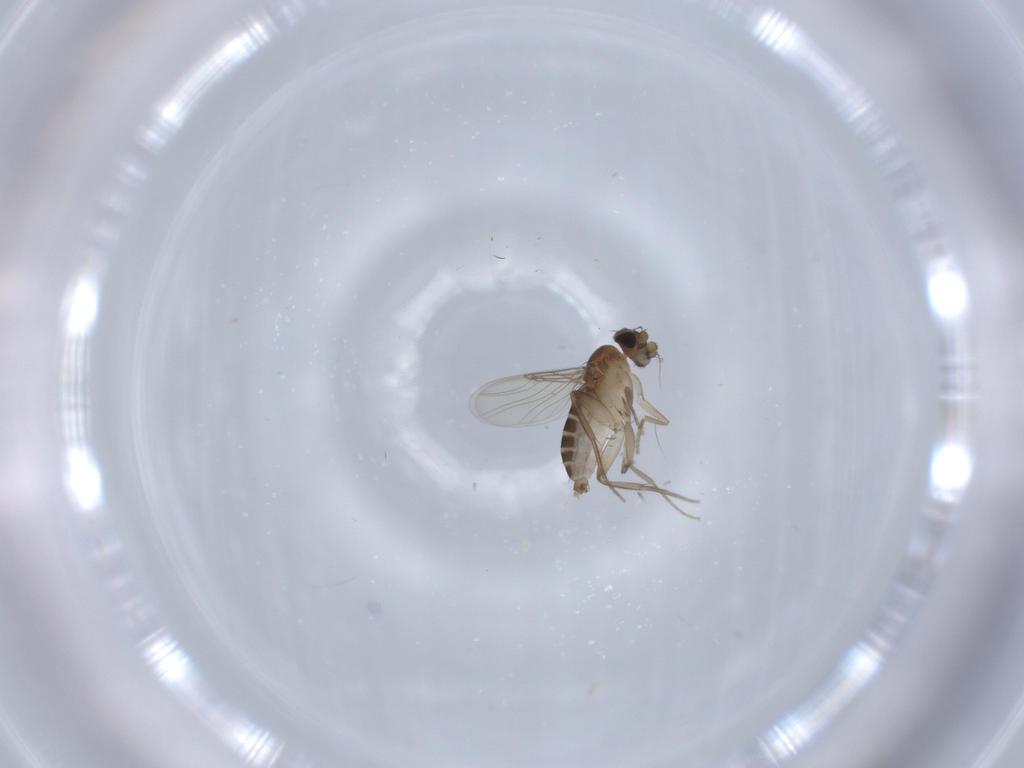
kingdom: Animalia
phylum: Arthropoda
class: Insecta
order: Diptera
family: Phoridae
